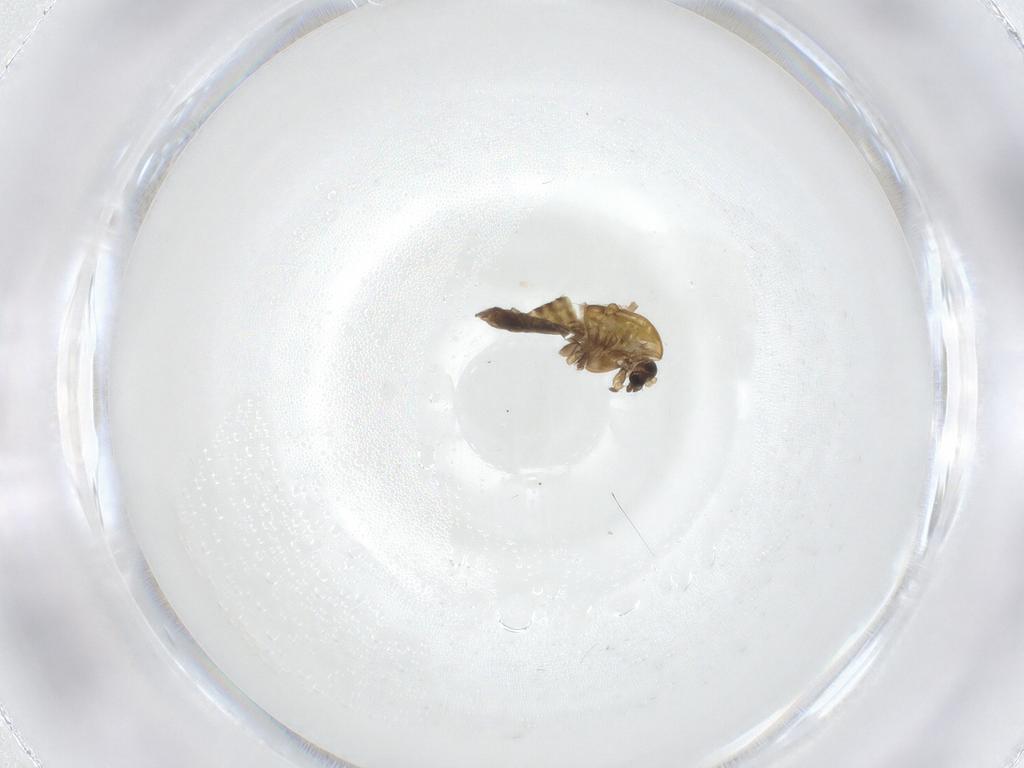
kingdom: Animalia
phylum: Arthropoda
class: Insecta
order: Diptera
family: Chironomidae
